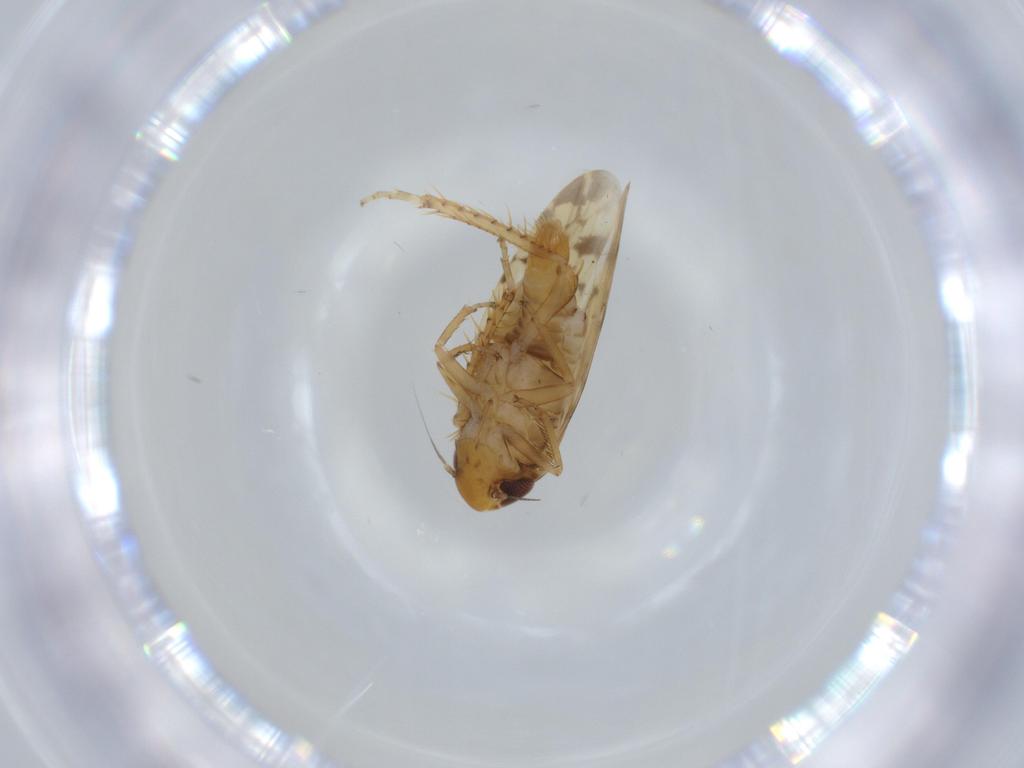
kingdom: Animalia
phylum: Arthropoda
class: Insecta
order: Hemiptera
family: Cicadellidae
